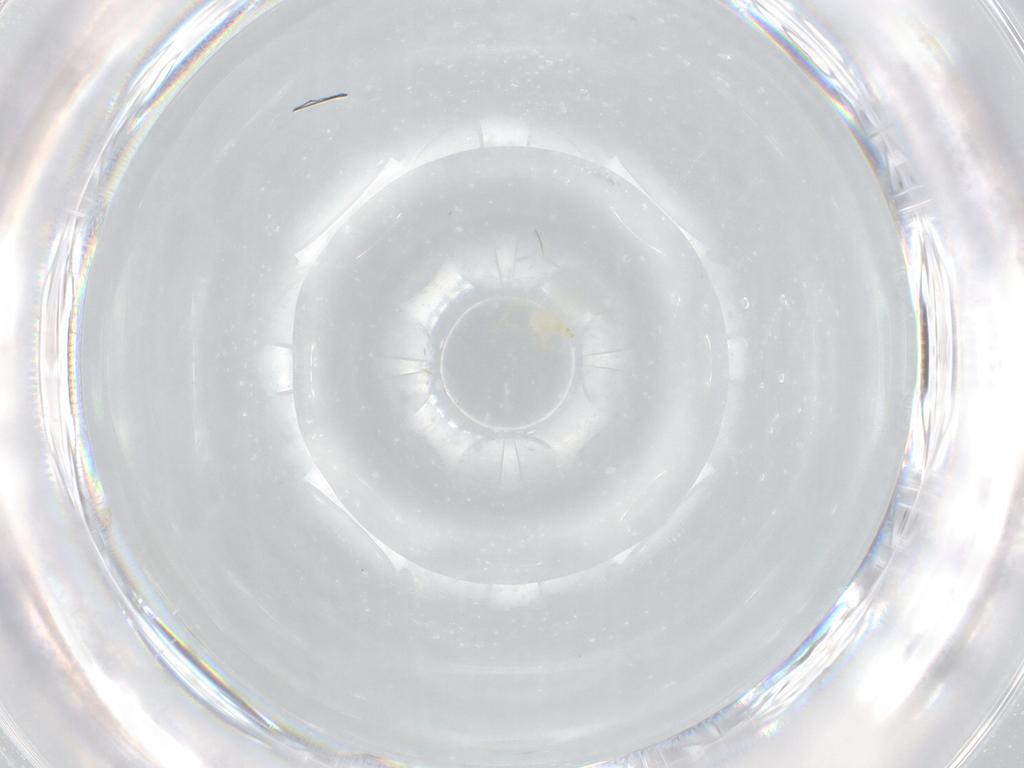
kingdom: Animalia
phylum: Arthropoda
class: Arachnida
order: Trombidiformes
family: Erythraeidae
